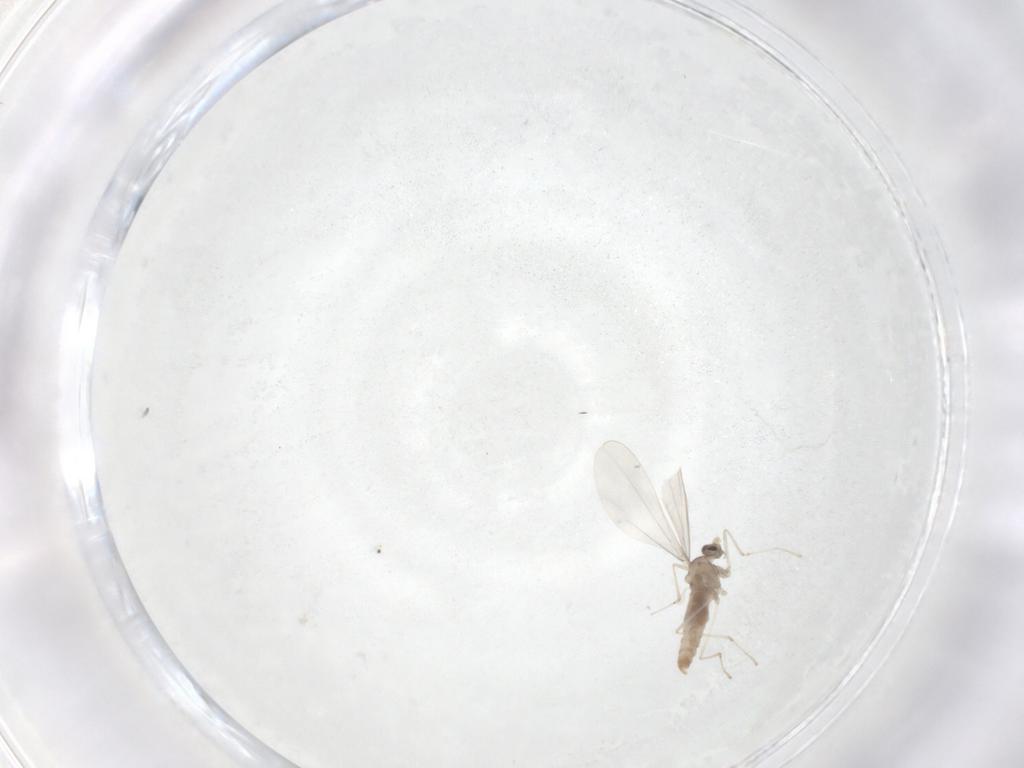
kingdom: Animalia
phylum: Arthropoda
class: Insecta
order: Diptera
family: Cecidomyiidae
